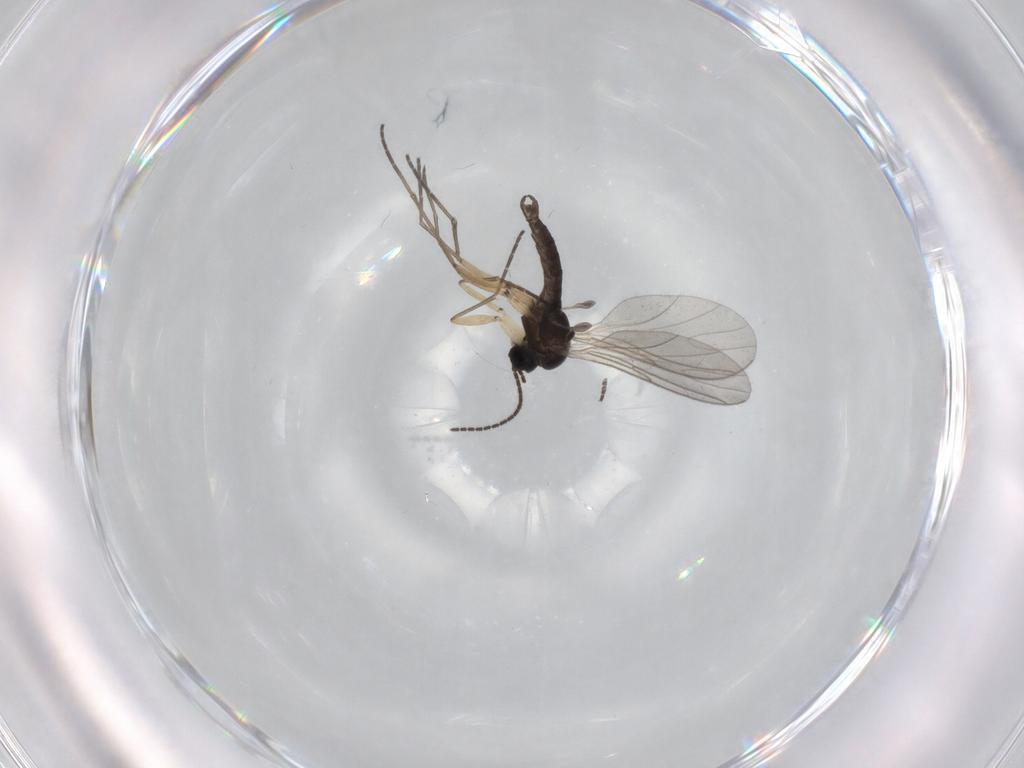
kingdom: Animalia
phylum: Arthropoda
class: Insecta
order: Diptera
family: Sciaridae
